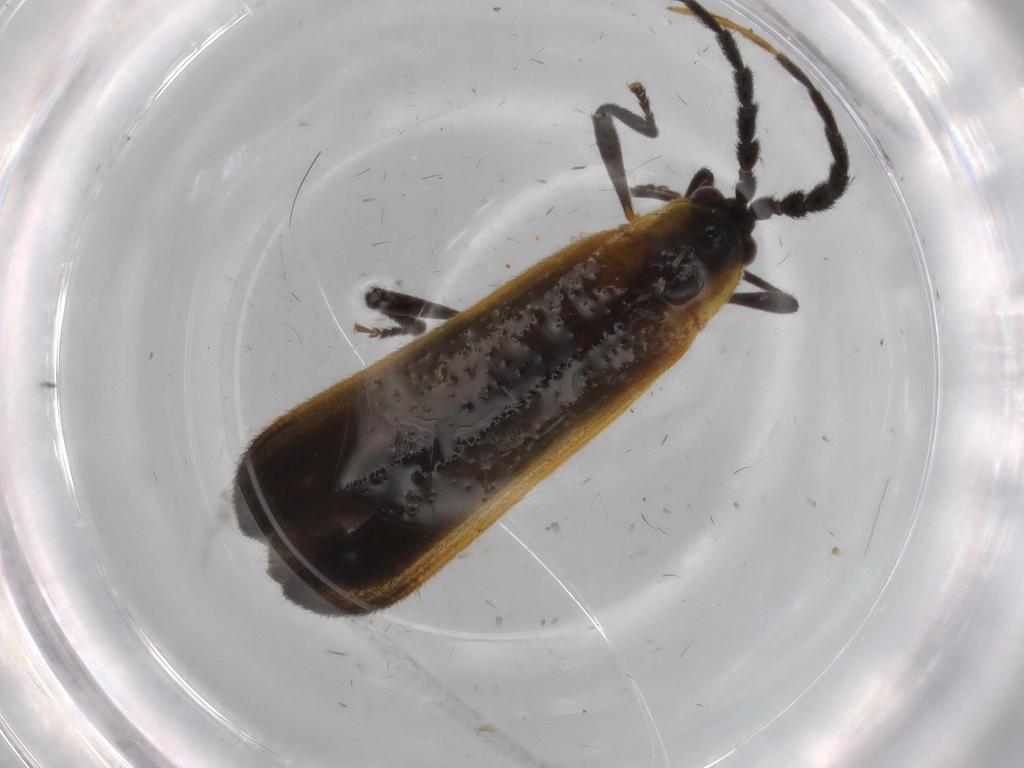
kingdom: Animalia
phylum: Arthropoda
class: Insecta
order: Coleoptera
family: Chrysomelidae
